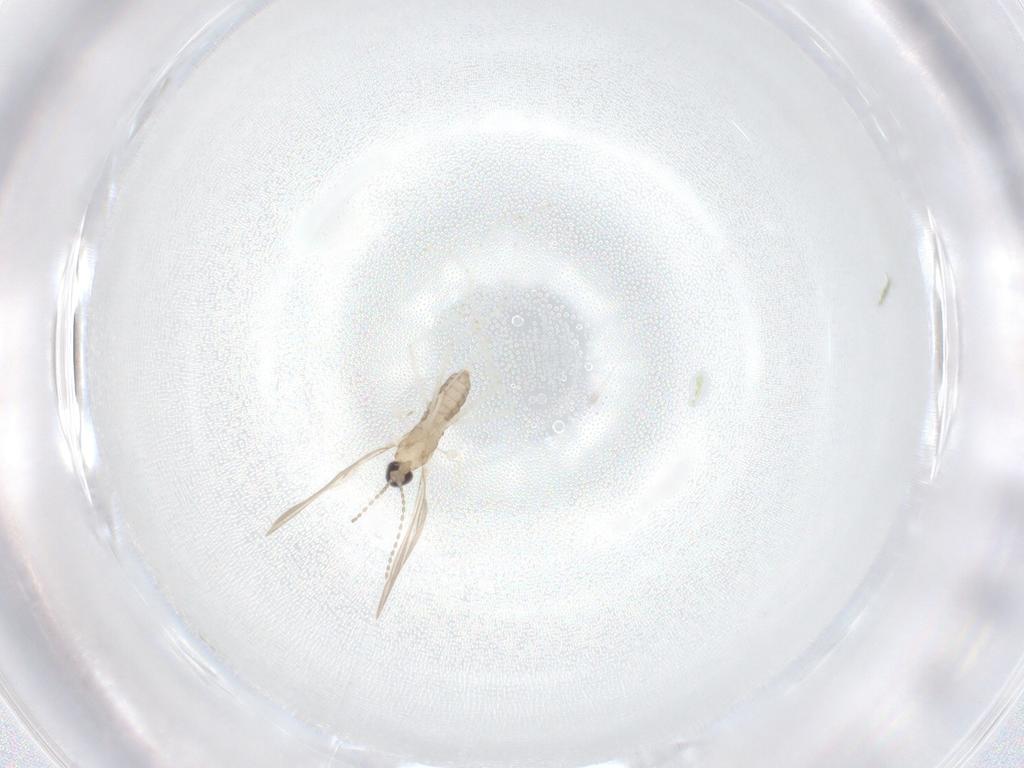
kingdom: Animalia
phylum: Arthropoda
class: Insecta
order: Diptera
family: Cecidomyiidae
